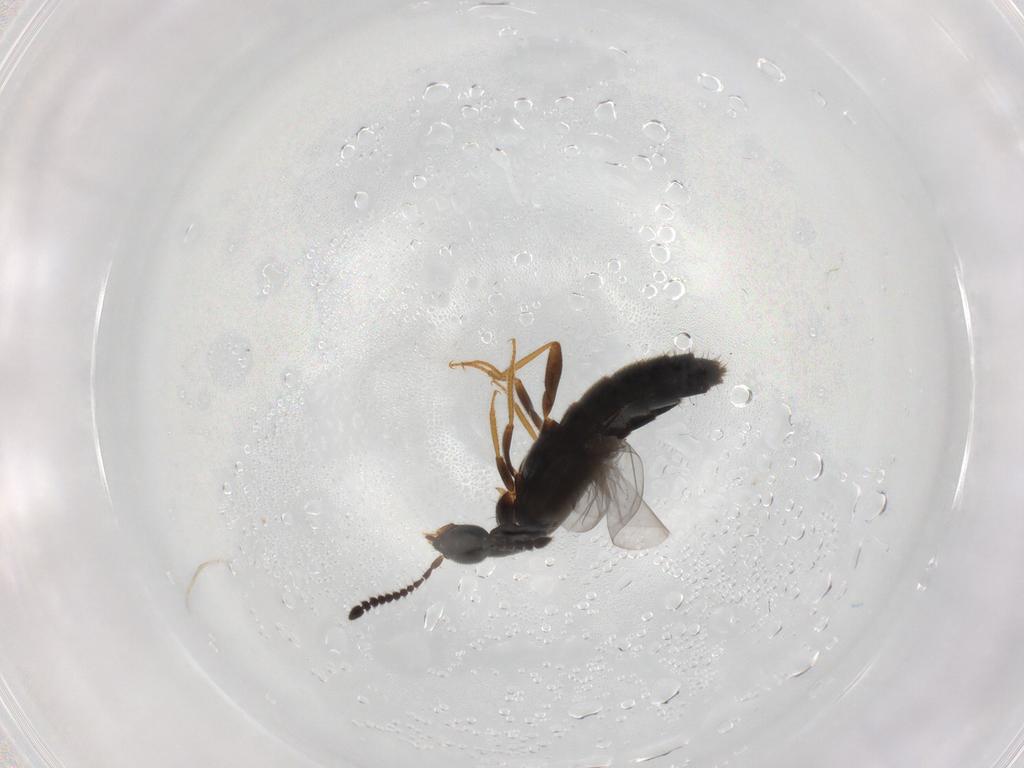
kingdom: Animalia
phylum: Arthropoda
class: Insecta
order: Coleoptera
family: Staphylinidae
